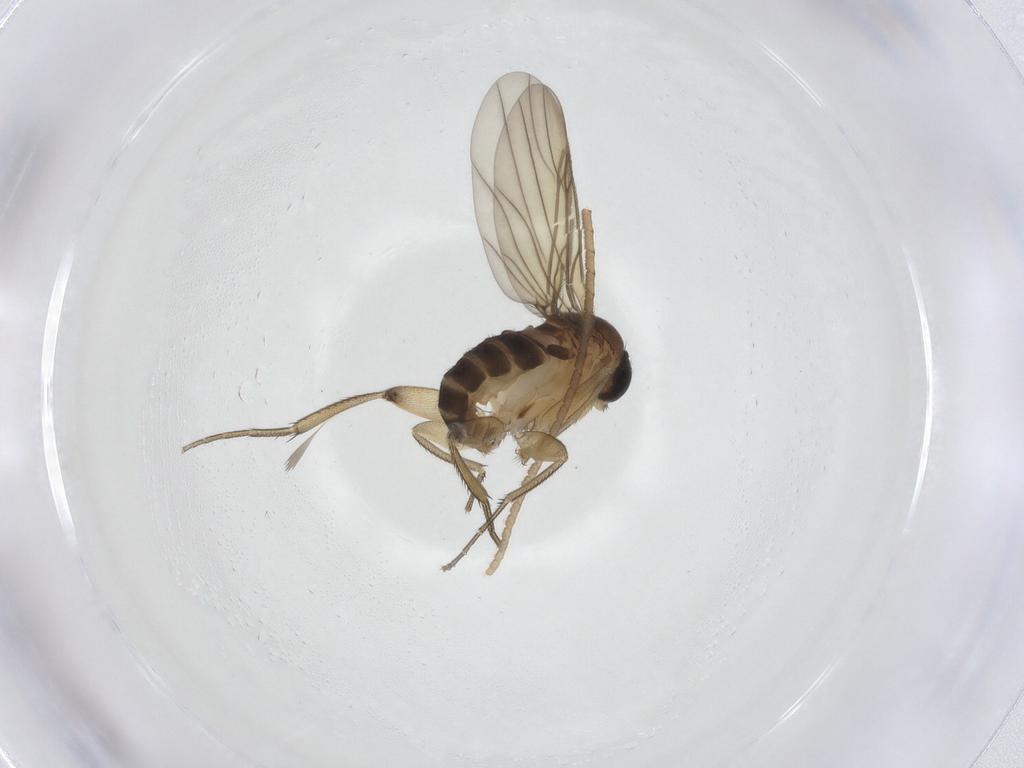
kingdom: Animalia
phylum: Arthropoda
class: Insecta
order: Diptera
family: Phoridae
